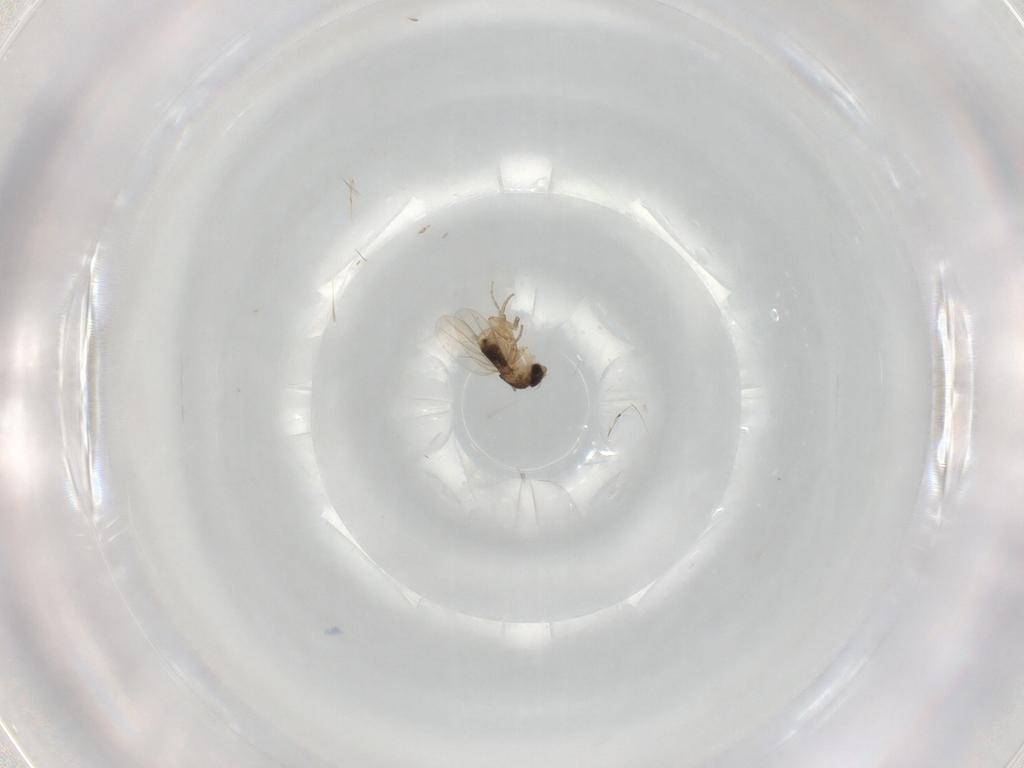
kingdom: Animalia
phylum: Arthropoda
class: Insecta
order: Diptera
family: Ceratopogonidae
